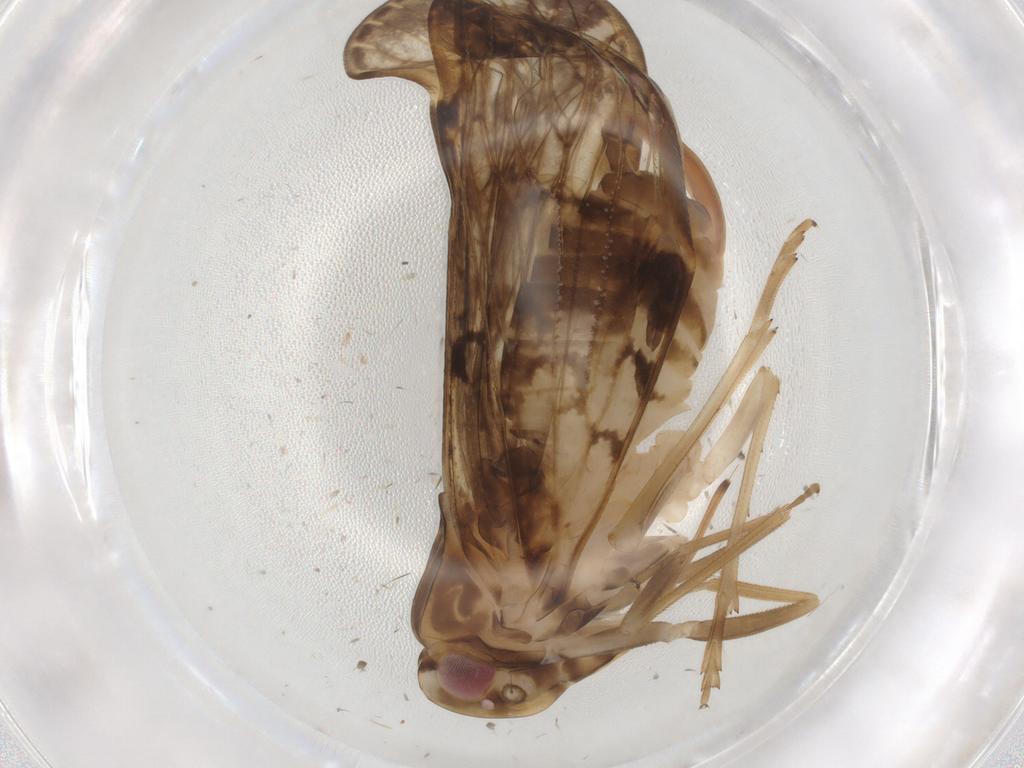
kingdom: Animalia
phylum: Arthropoda
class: Insecta
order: Hemiptera
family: Cixiidae
